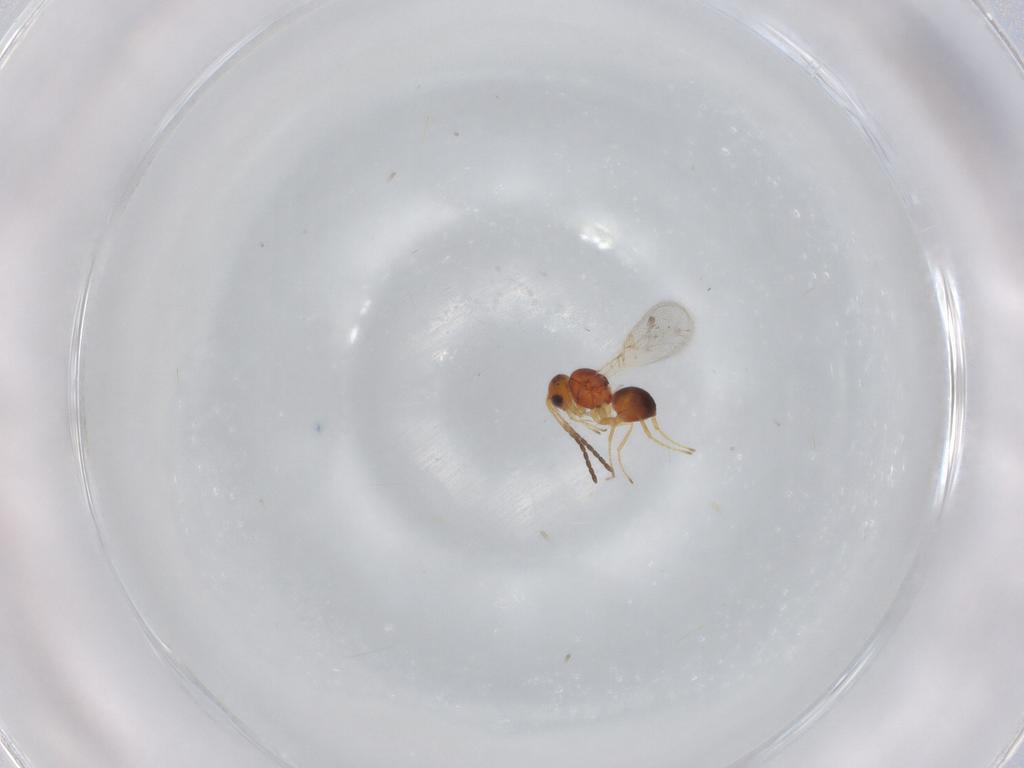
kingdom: Animalia
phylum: Arthropoda
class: Insecta
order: Hymenoptera
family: Figitidae
